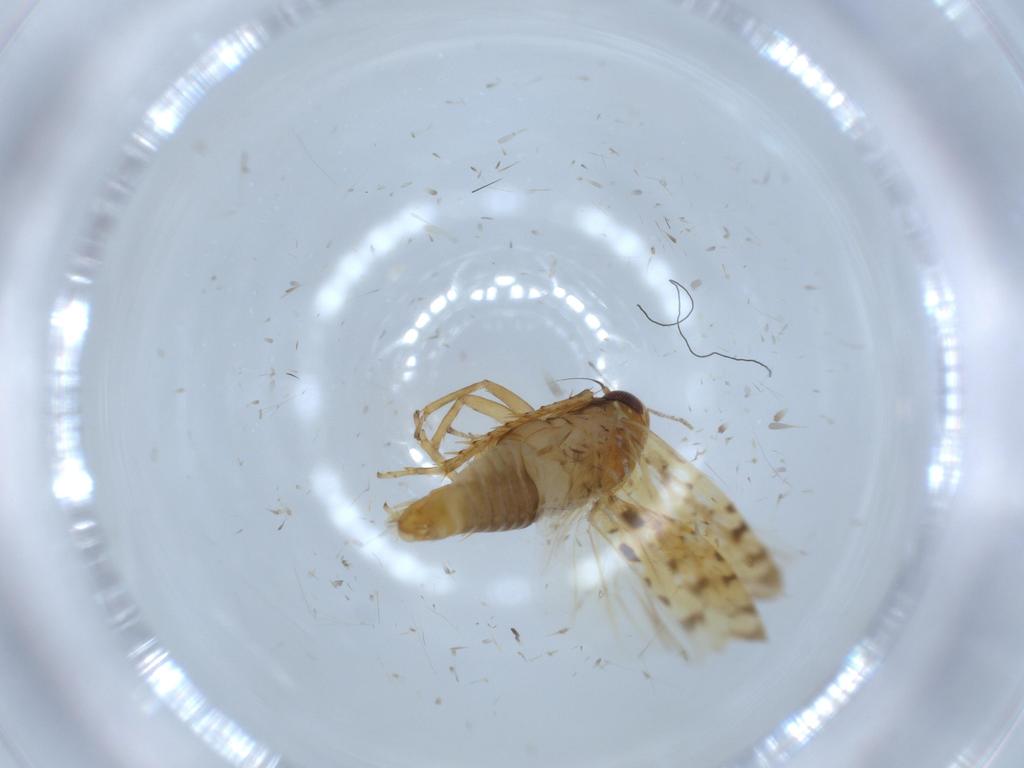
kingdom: Animalia
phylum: Arthropoda
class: Insecta
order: Hemiptera
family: Cicadellidae
